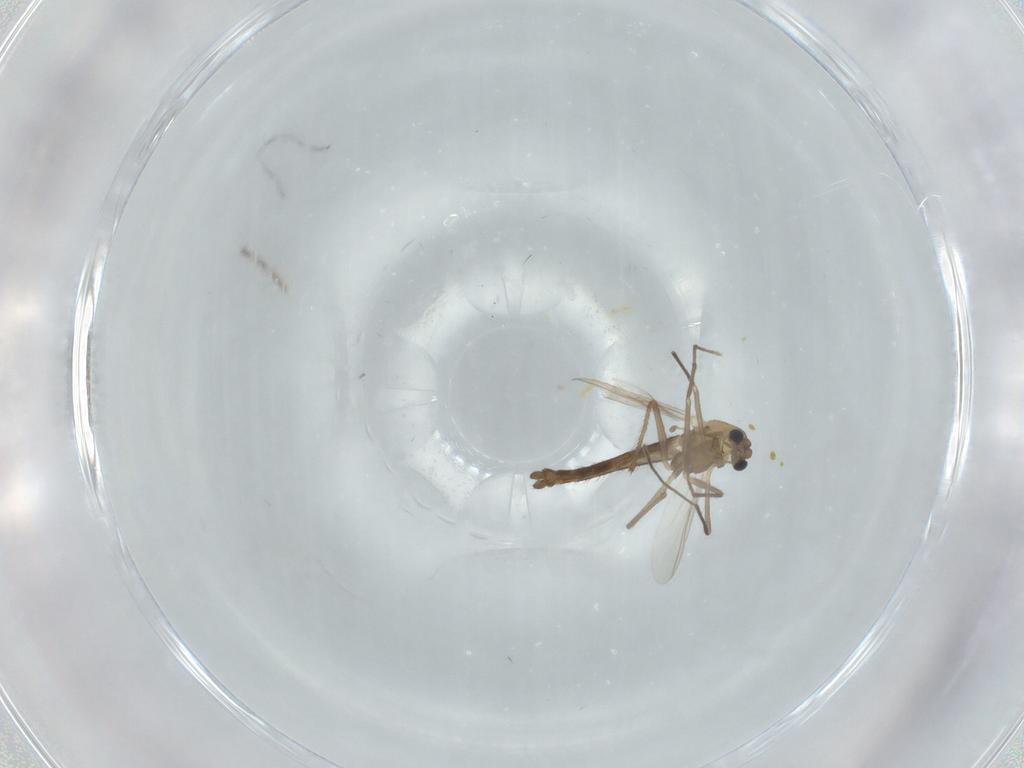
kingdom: Animalia
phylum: Arthropoda
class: Insecta
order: Diptera
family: Chironomidae
